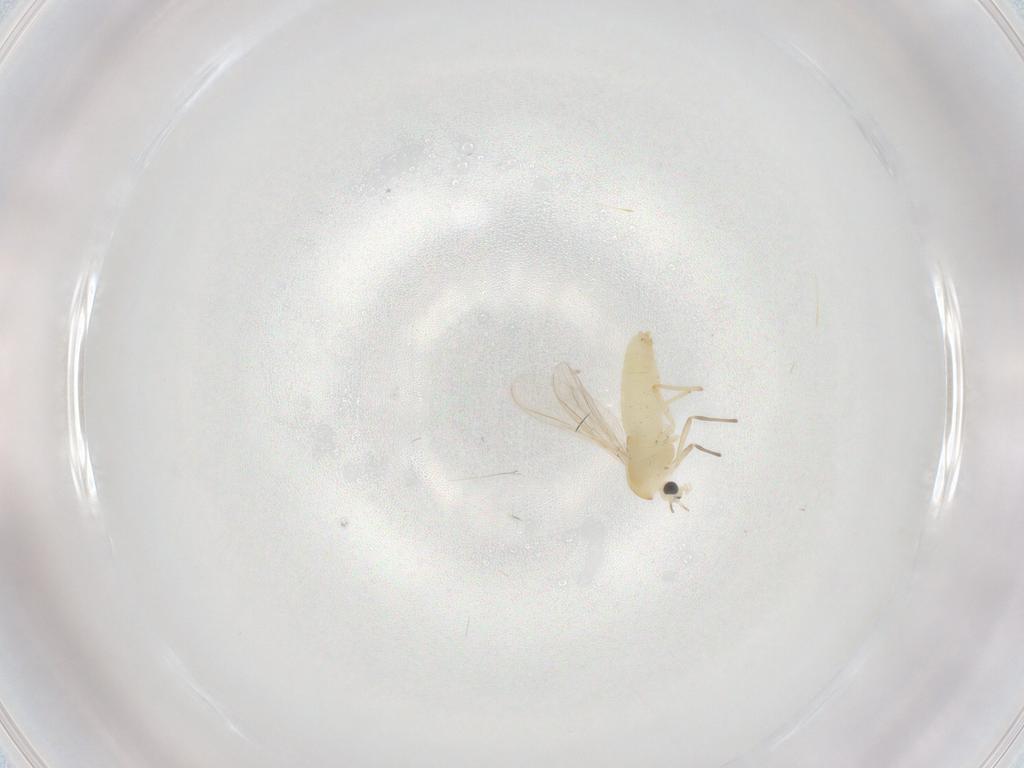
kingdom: Animalia
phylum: Arthropoda
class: Insecta
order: Diptera
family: Chironomidae
